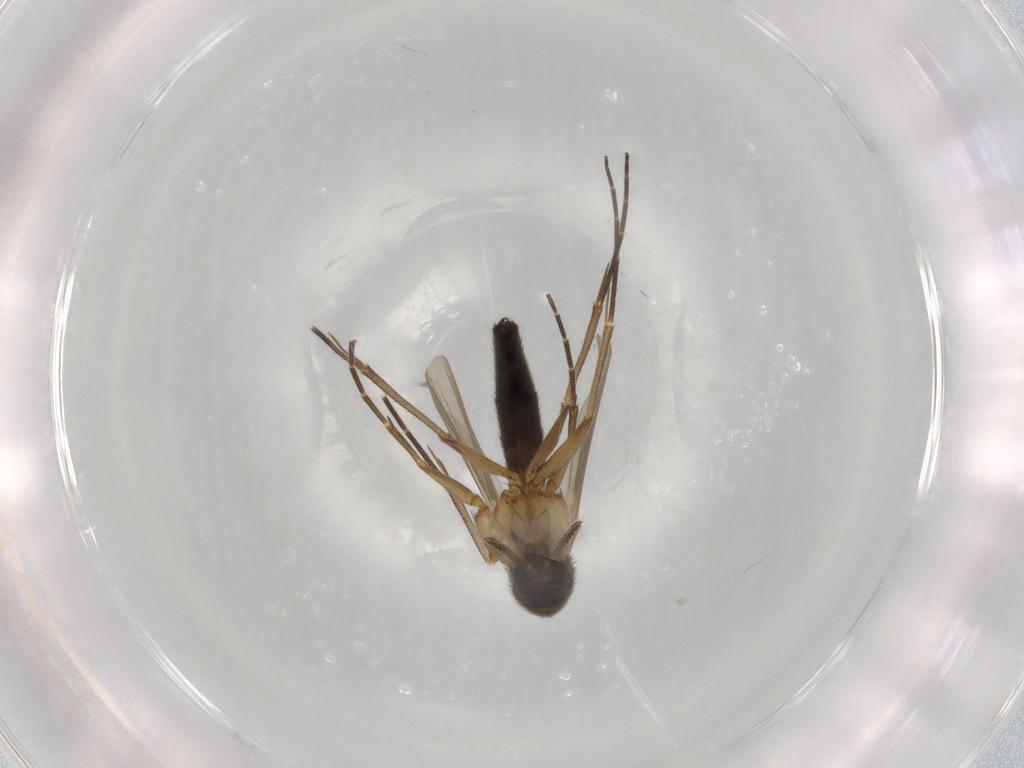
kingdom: Animalia
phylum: Arthropoda
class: Insecta
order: Diptera
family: Mycetophilidae
